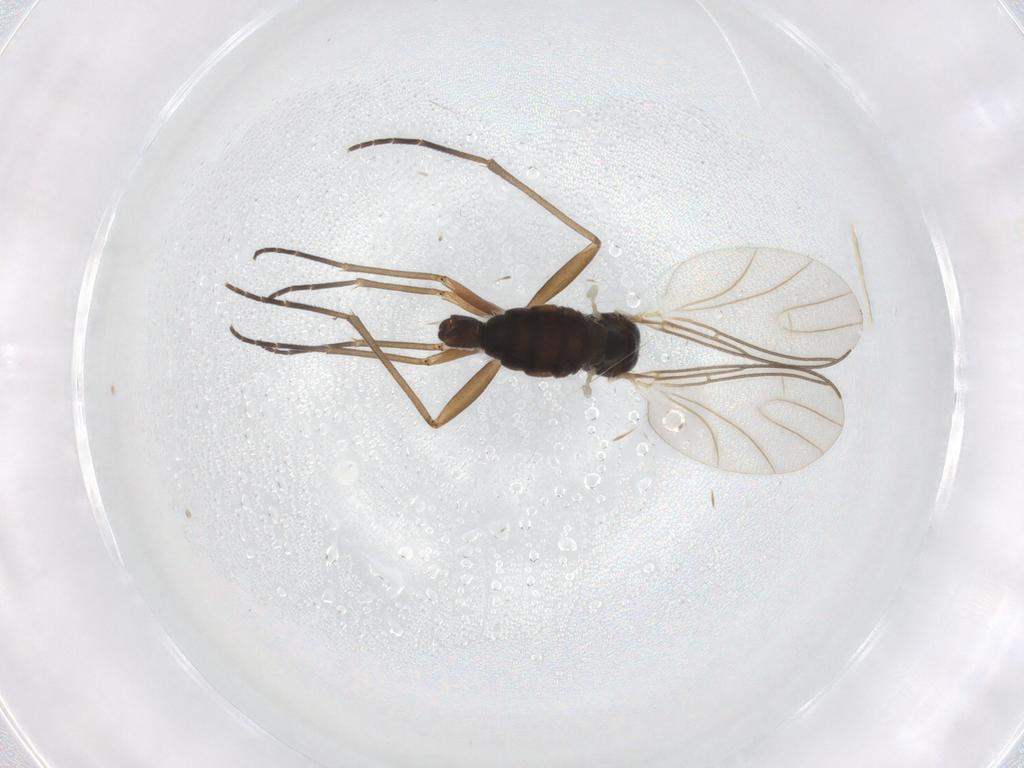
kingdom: Animalia
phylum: Arthropoda
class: Insecta
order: Diptera
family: Sciaridae
